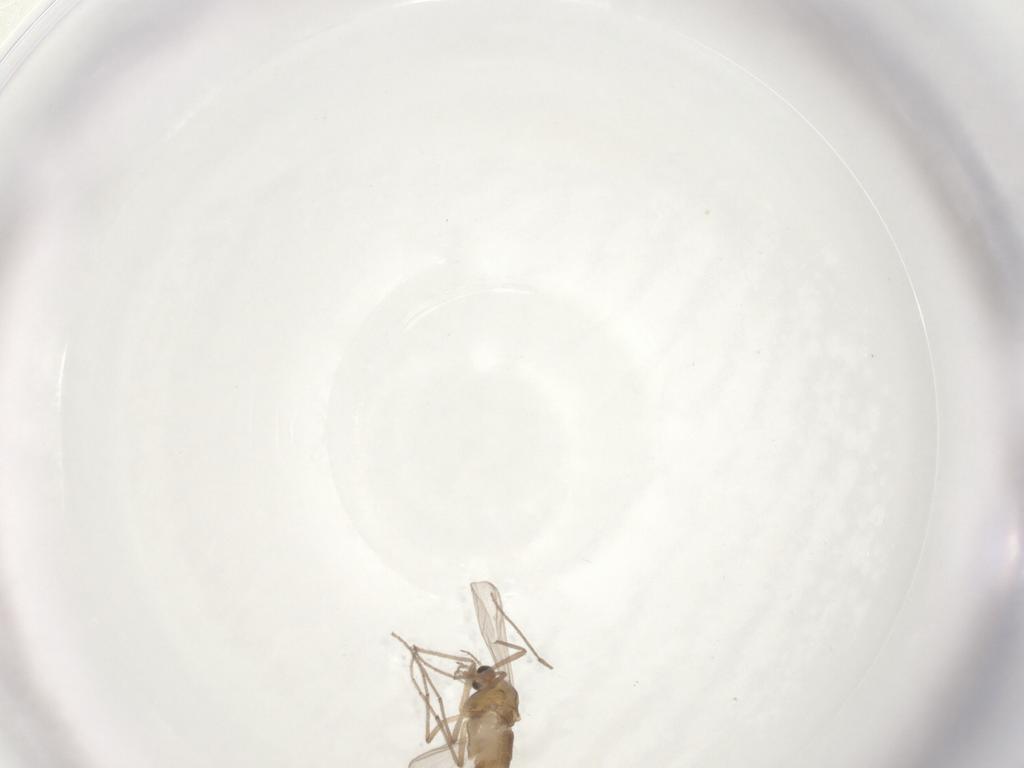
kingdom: Animalia
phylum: Arthropoda
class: Insecta
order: Diptera
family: Chironomidae
